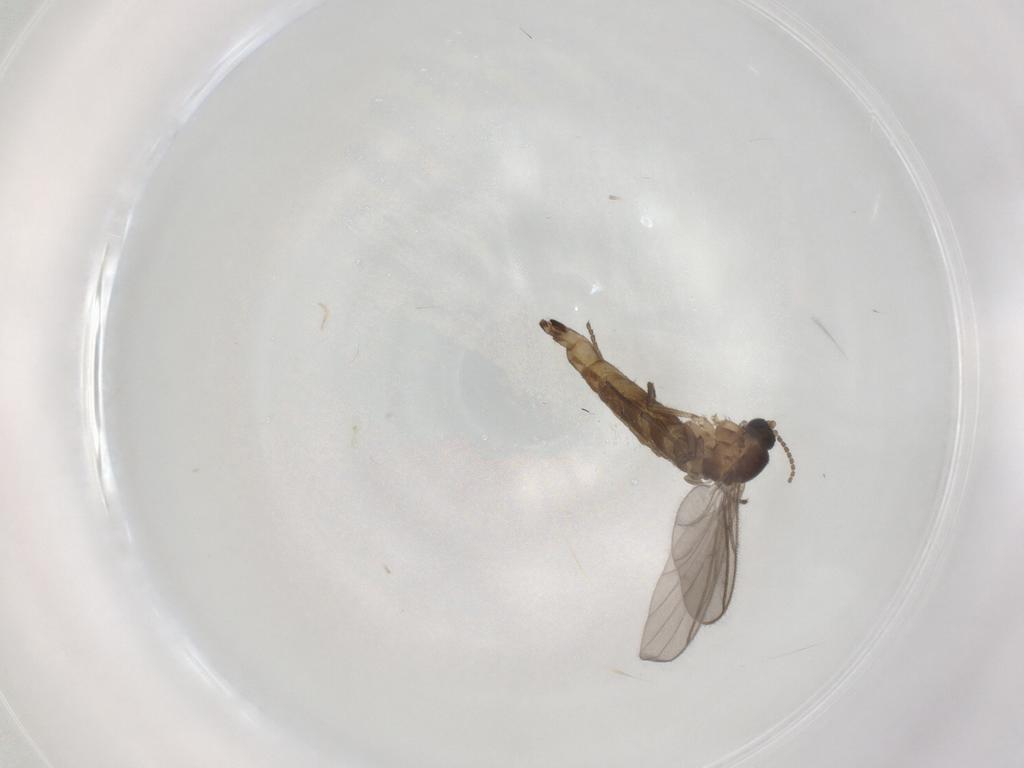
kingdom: Animalia
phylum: Arthropoda
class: Insecta
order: Diptera
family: Sciaridae
